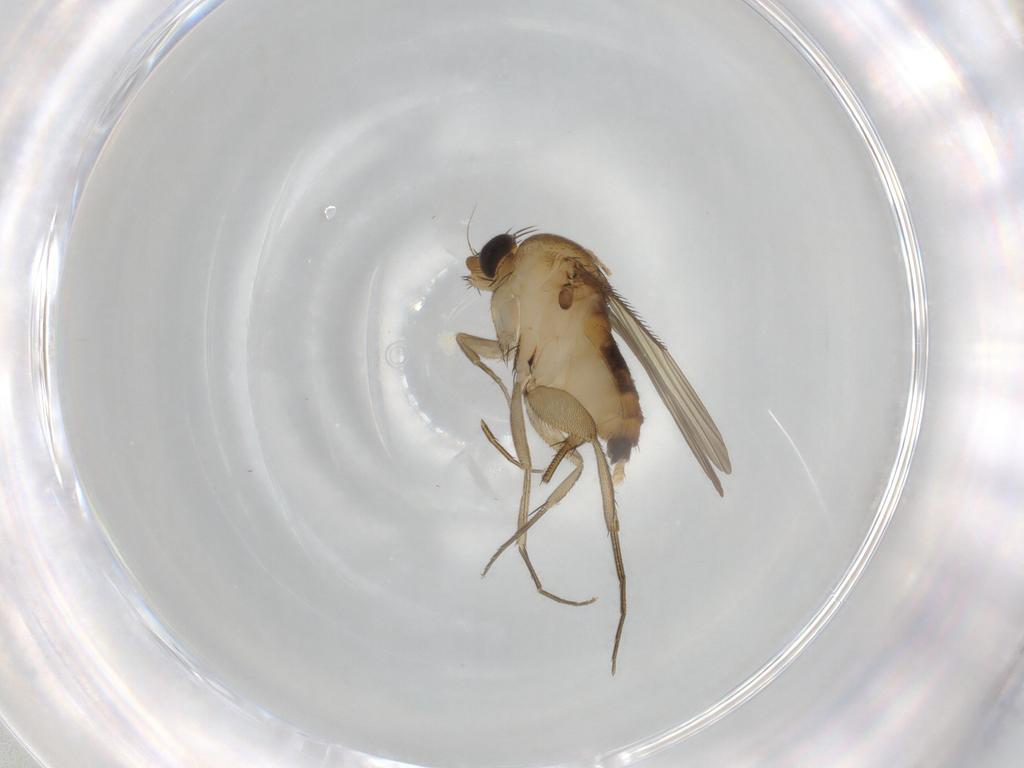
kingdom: Animalia
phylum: Arthropoda
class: Insecta
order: Diptera
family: Phoridae
